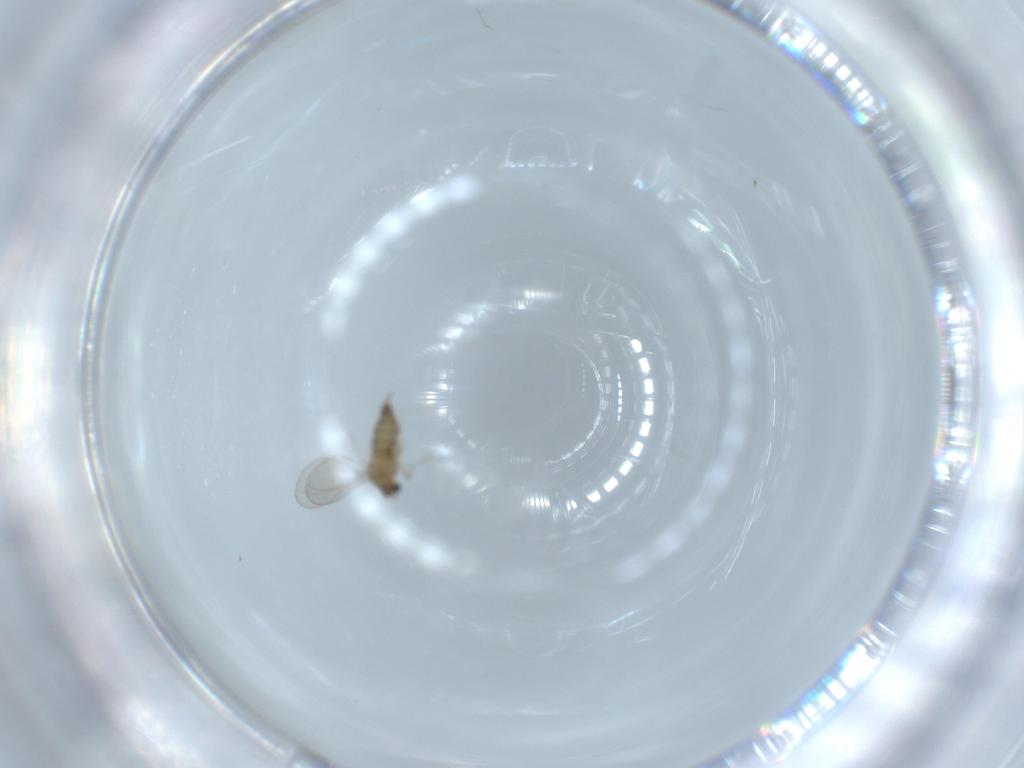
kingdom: Animalia
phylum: Arthropoda
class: Insecta
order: Diptera
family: Cecidomyiidae
